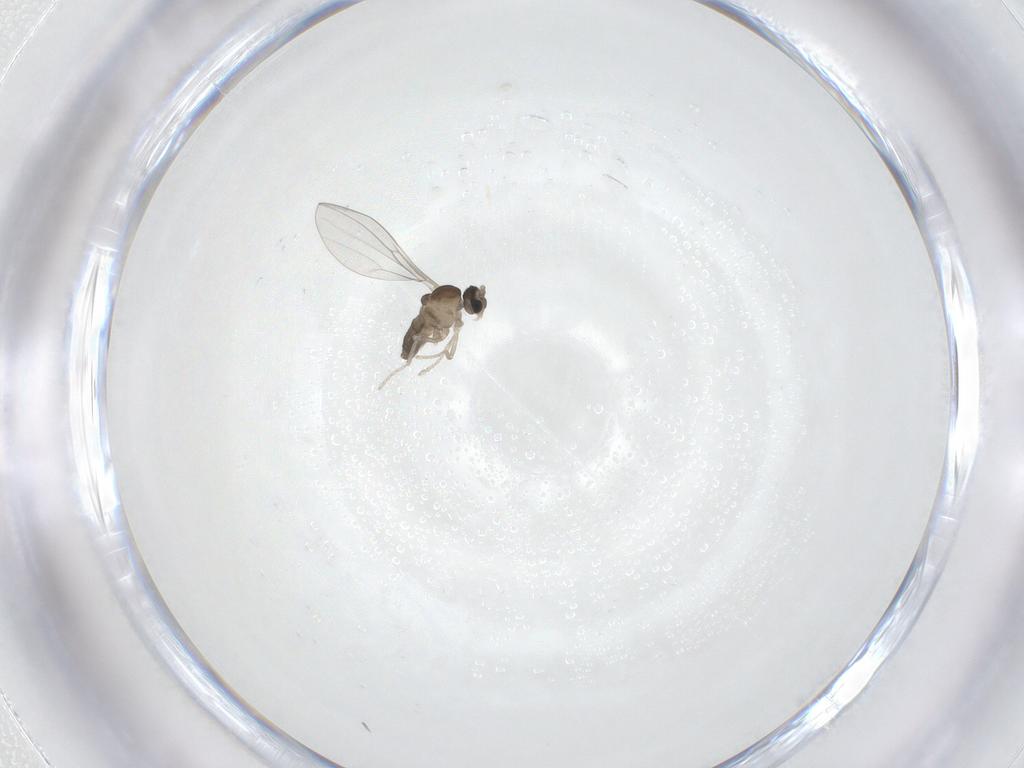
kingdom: Animalia
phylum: Arthropoda
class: Insecta
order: Diptera
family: Cecidomyiidae
